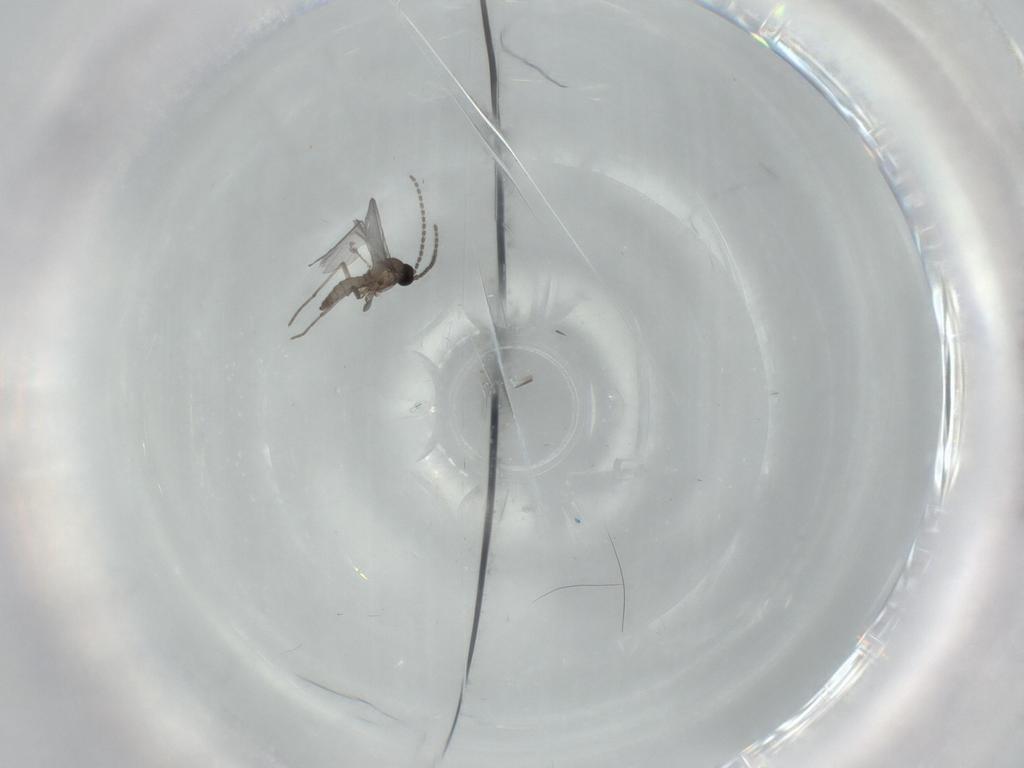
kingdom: Animalia
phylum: Arthropoda
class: Insecta
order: Diptera
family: Sciaridae
